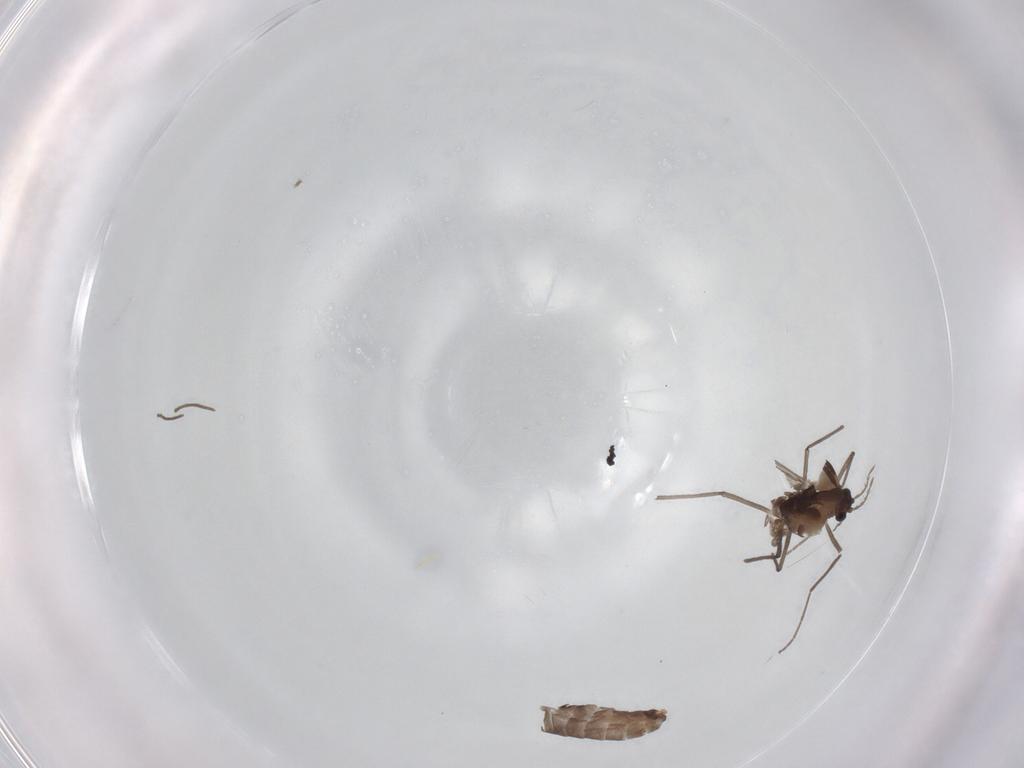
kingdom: Animalia
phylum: Arthropoda
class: Insecta
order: Diptera
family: Chironomidae
